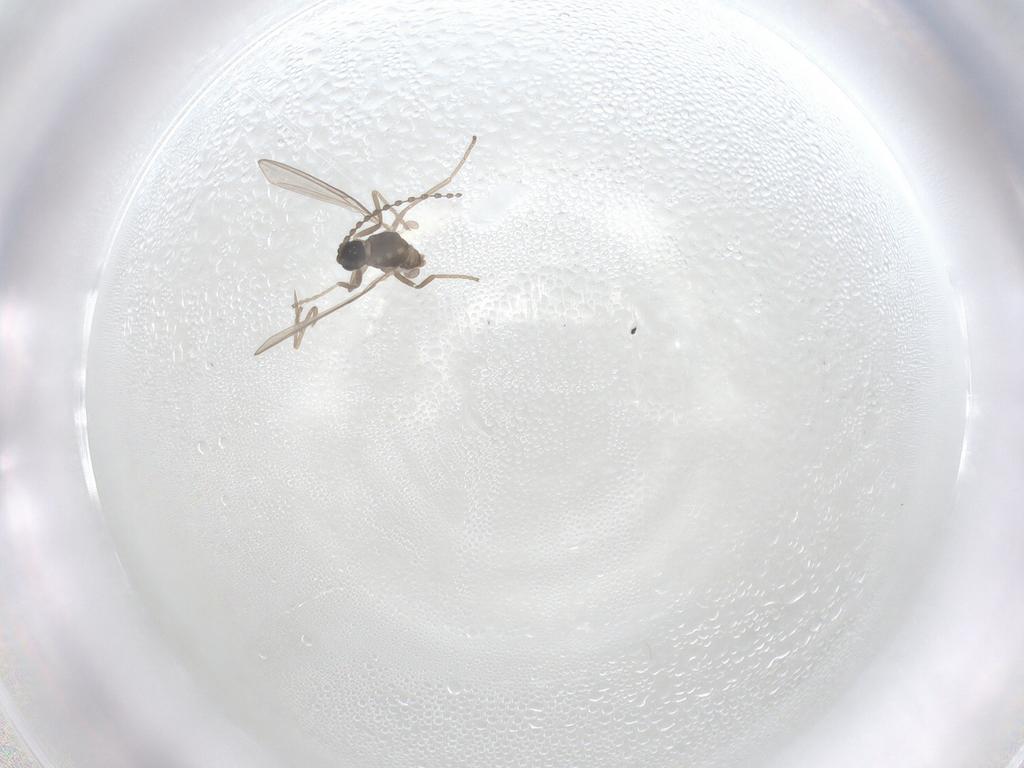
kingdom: Animalia
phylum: Arthropoda
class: Insecta
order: Diptera
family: Cecidomyiidae
